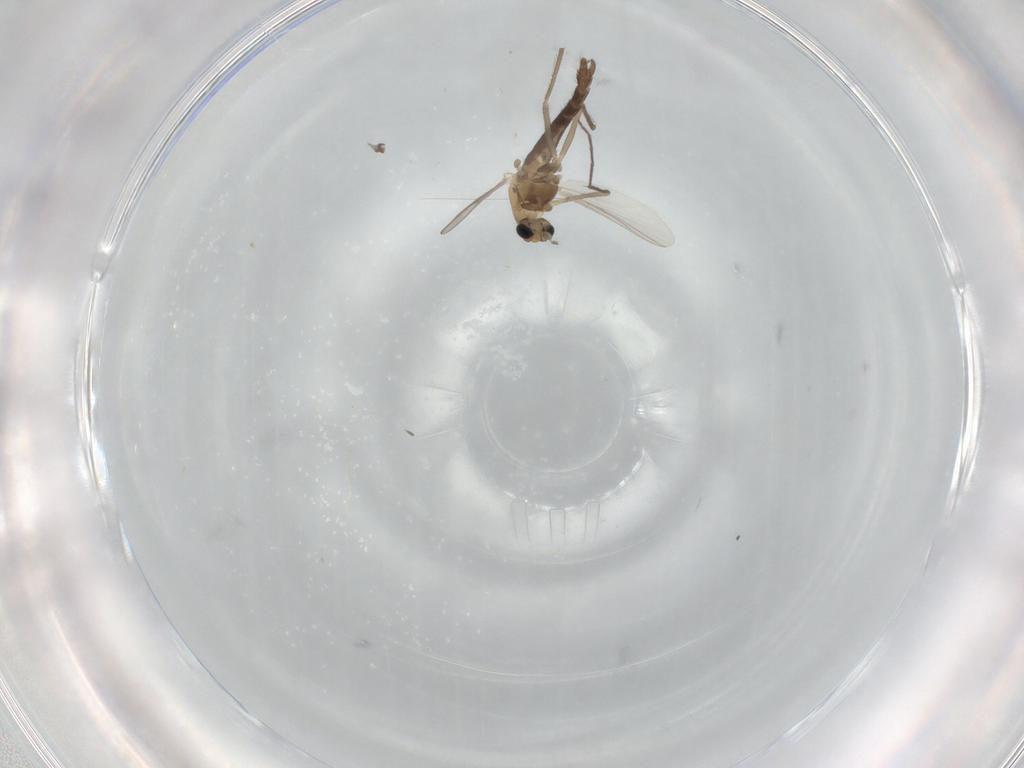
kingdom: Animalia
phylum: Arthropoda
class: Insecta
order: Diptera
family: Chironomidae
